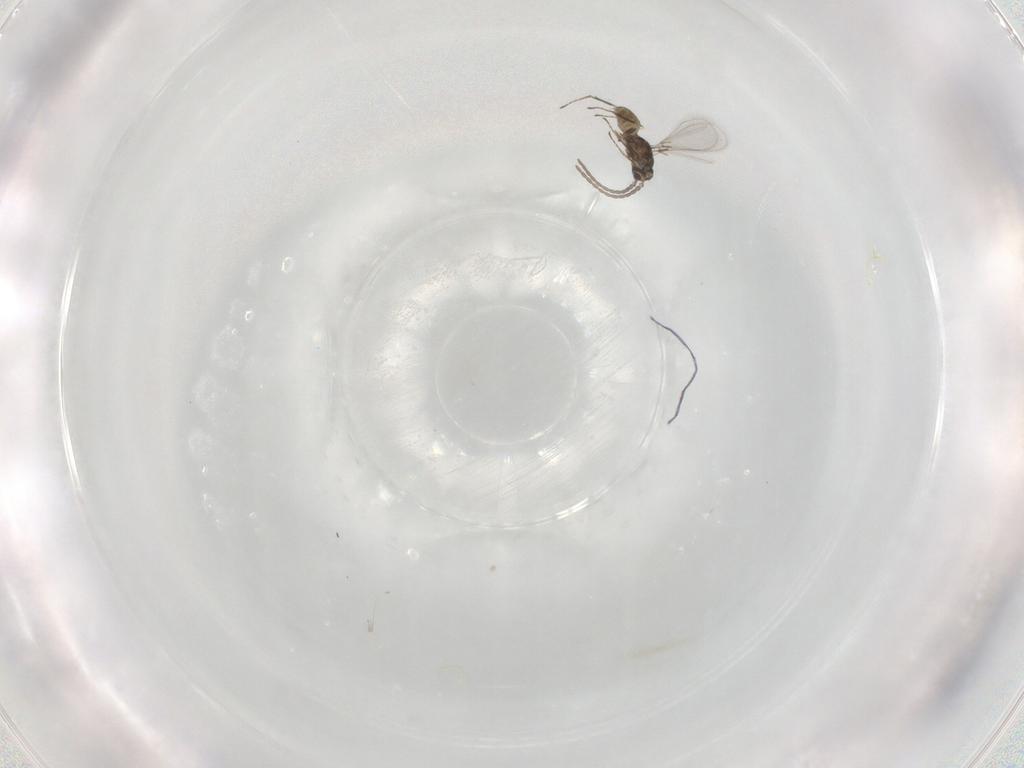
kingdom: Animalia
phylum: Arthropoda
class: Insecta
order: Hymenoptera
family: Mymaridae
